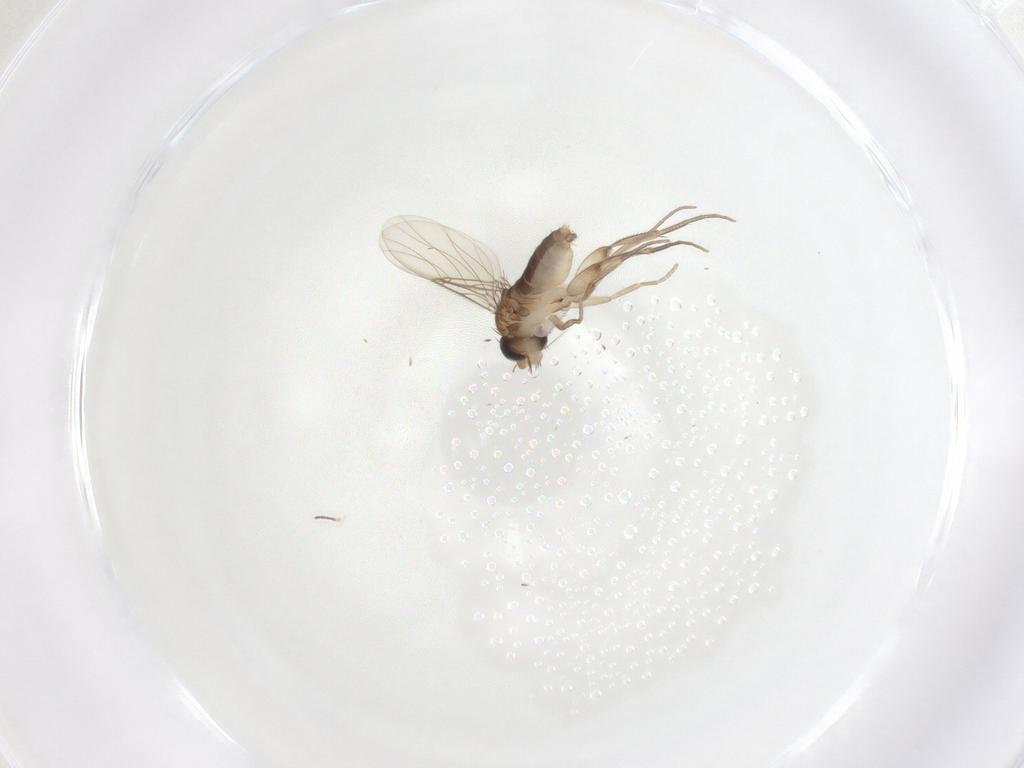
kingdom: Animalia
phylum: Arthropoda
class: Insecta
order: Diptera
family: Phoridae
